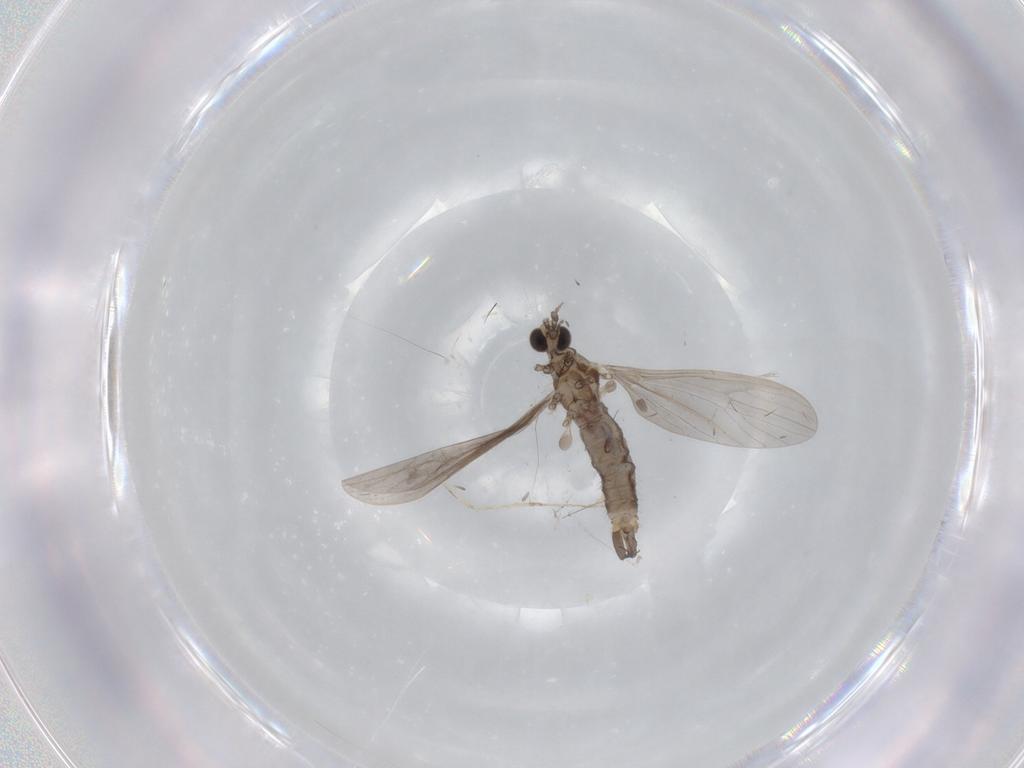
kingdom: Animalia
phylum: Arthropoda
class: Insecta
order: Diptera
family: Limoniidae
